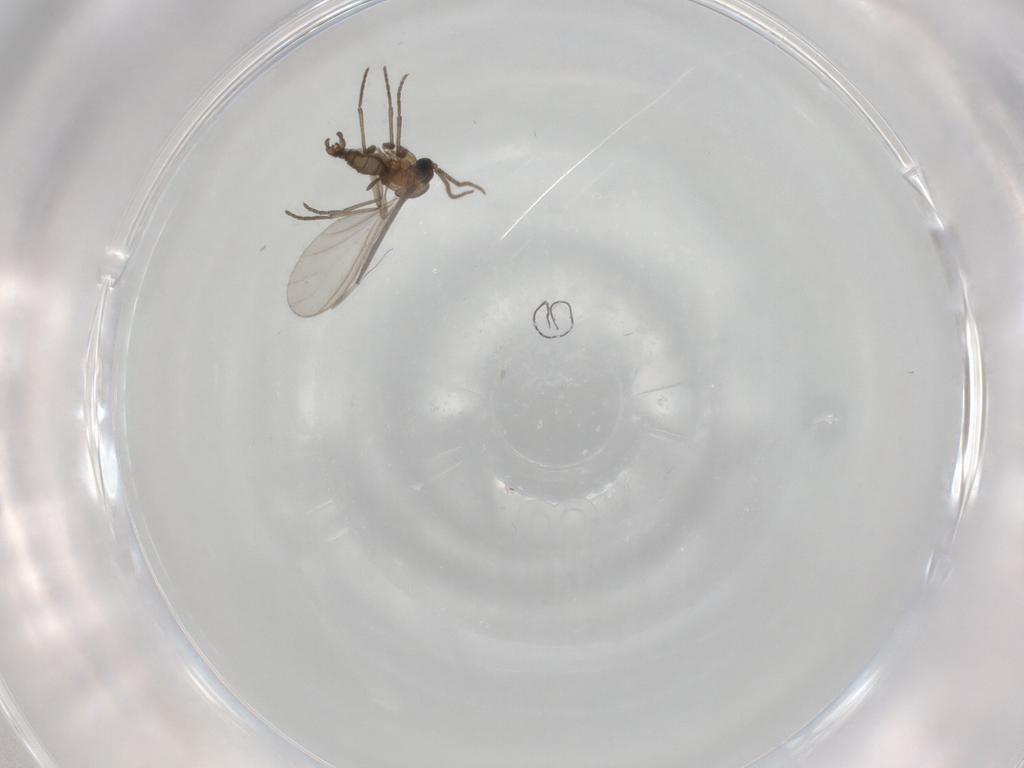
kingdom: Animalia
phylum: Arthropoda
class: Insecta
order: Diptera
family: Sciaridae
